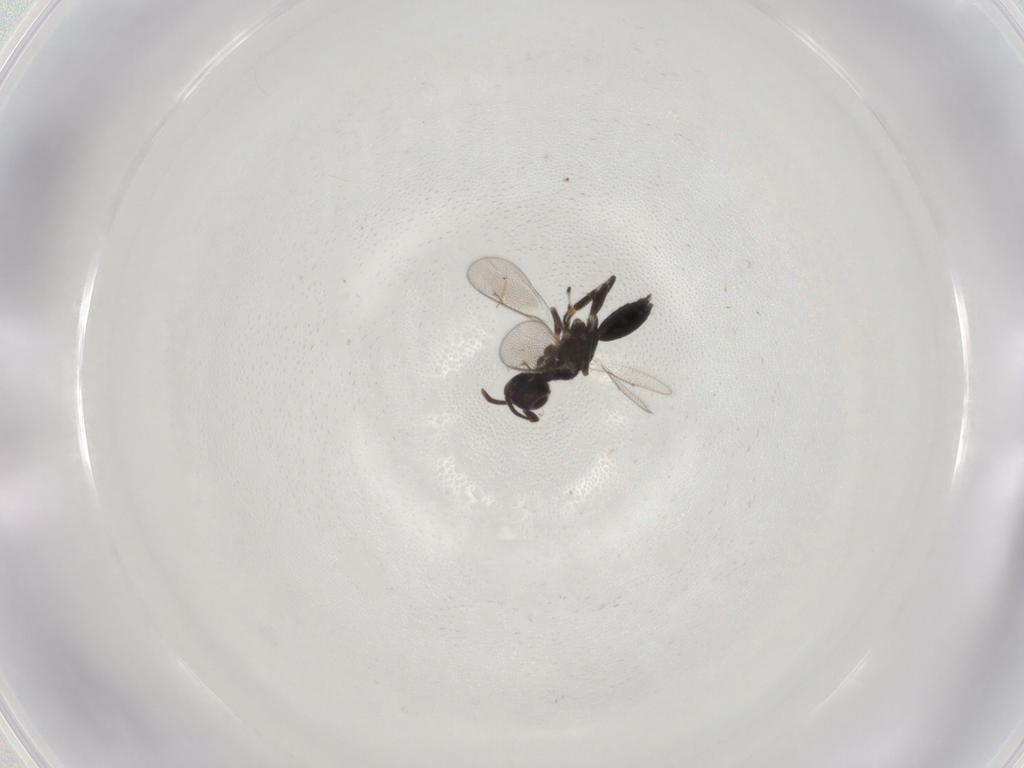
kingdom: Animalia
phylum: Arthropoda
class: Insecta
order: Hymenoptera
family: Eupelmidae
